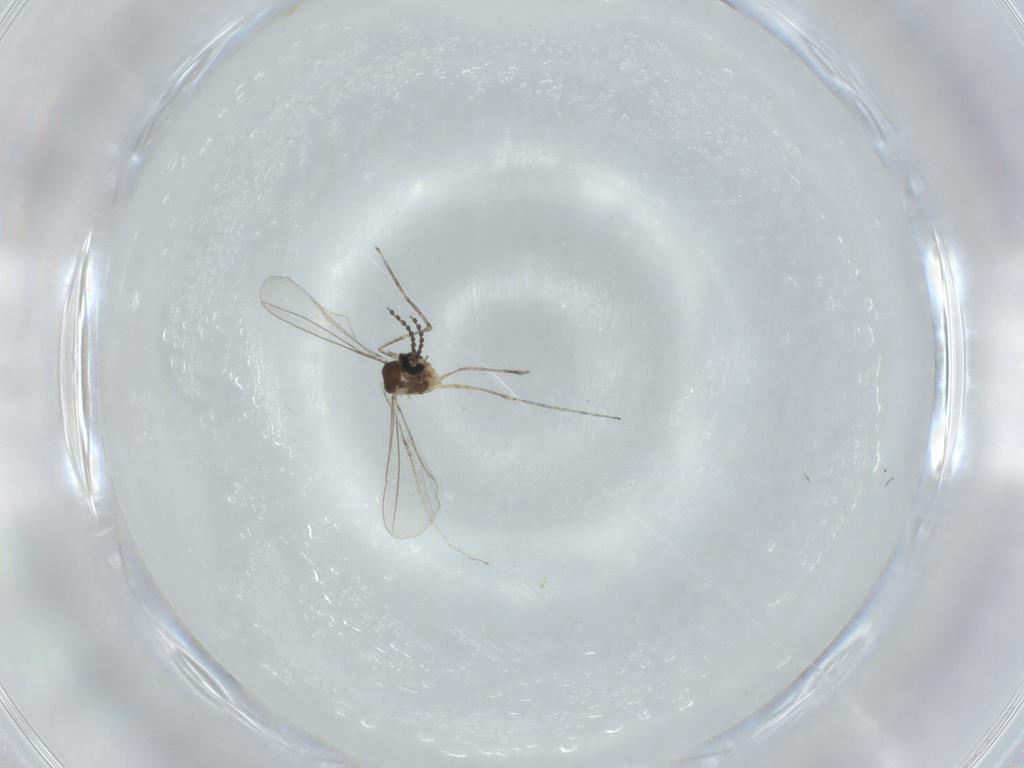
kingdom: Animalia
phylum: Arthropoda
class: Insecta
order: Diptera
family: Cecidomyiidae
